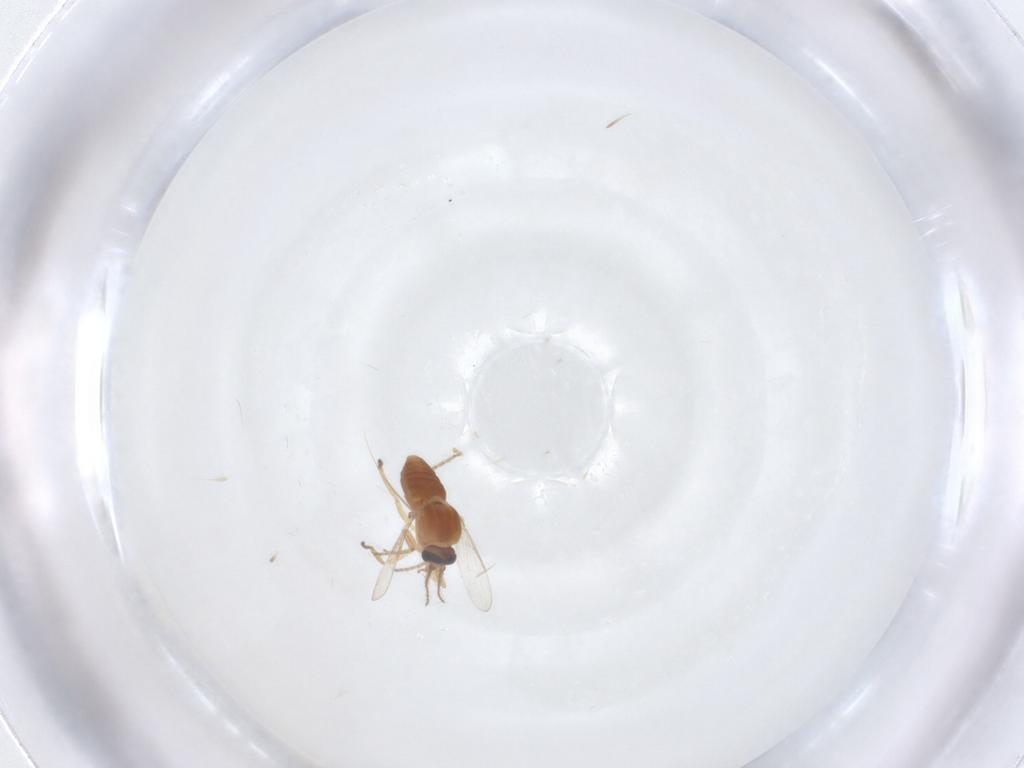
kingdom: Animalia
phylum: Arthropoda
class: Insecta
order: Diptera
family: Ceratopogonidae
